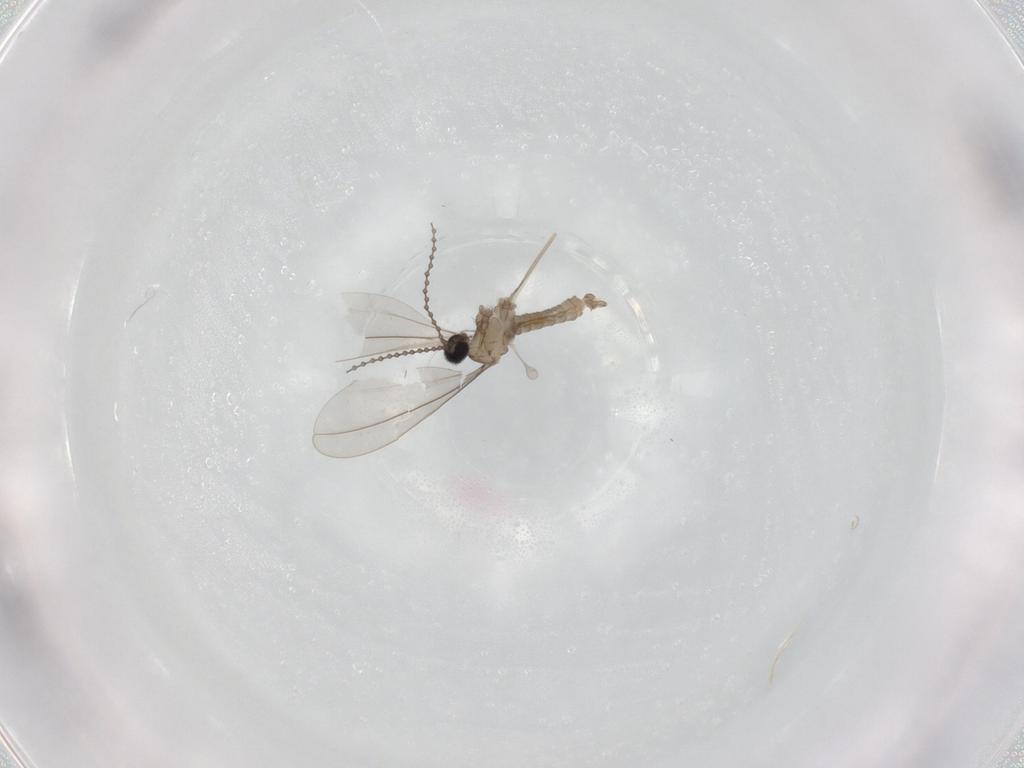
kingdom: Animalia
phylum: Arthropoda
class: Insecta
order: Diptera
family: Cecidomyiidae
